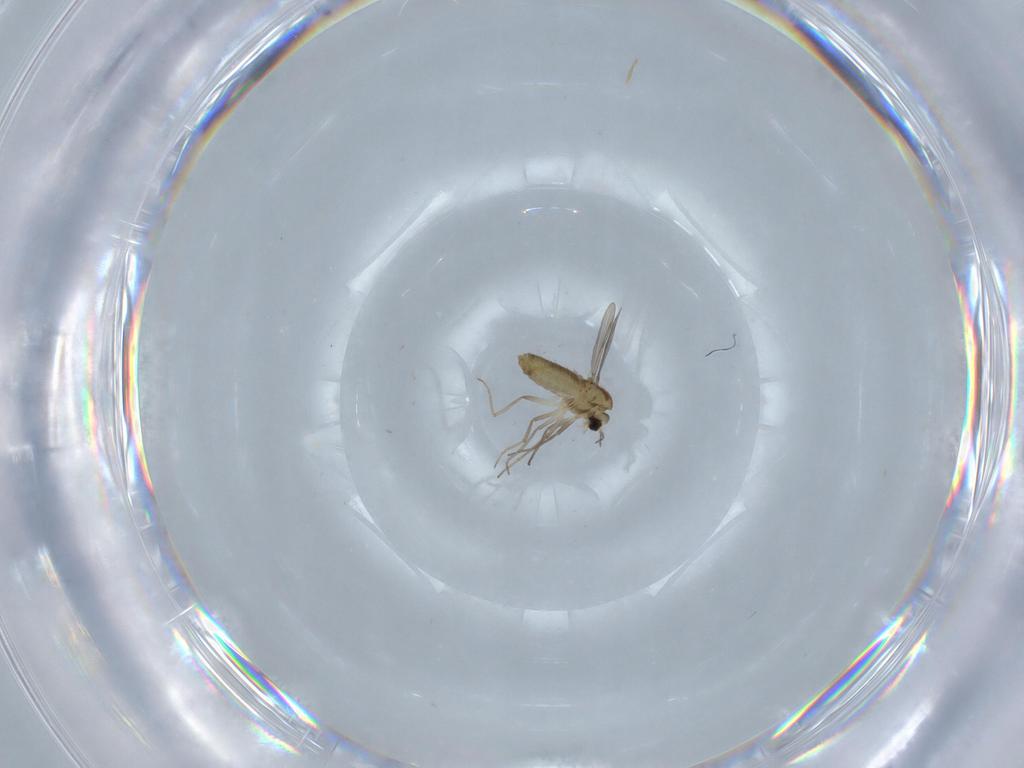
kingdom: Animalia
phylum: Arthropoda
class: Insecta
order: Diptera
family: Chironomidae
